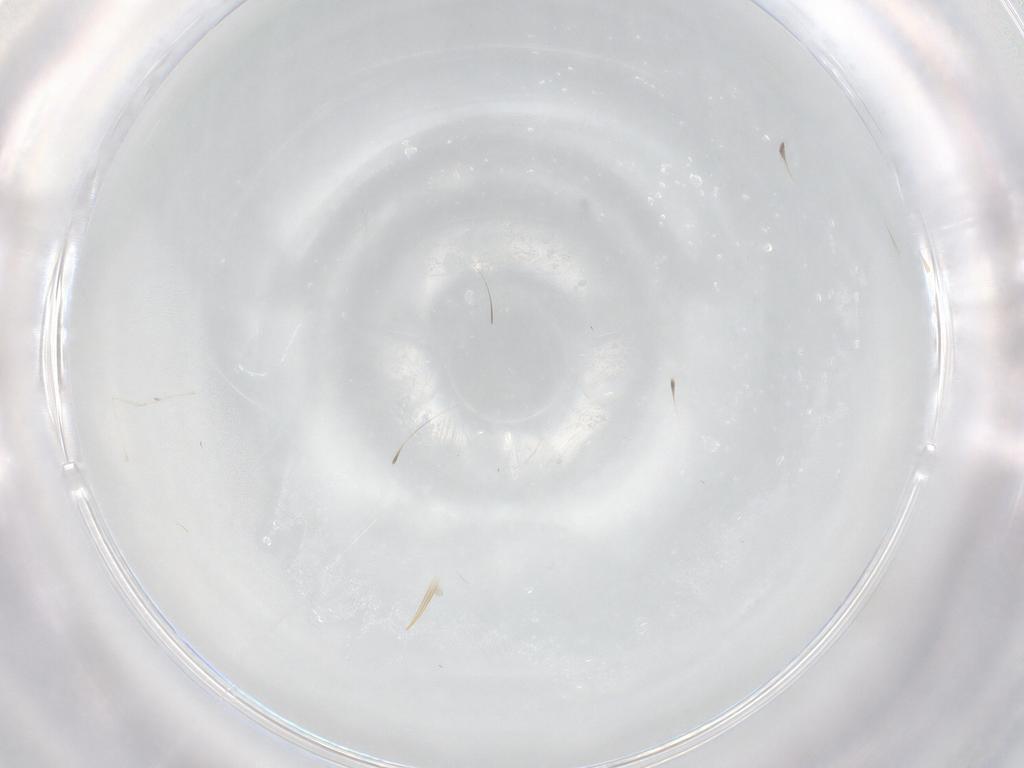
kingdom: Animalia
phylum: Arthropoda
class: Insecta
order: Diptera
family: Cecidomyiidae
